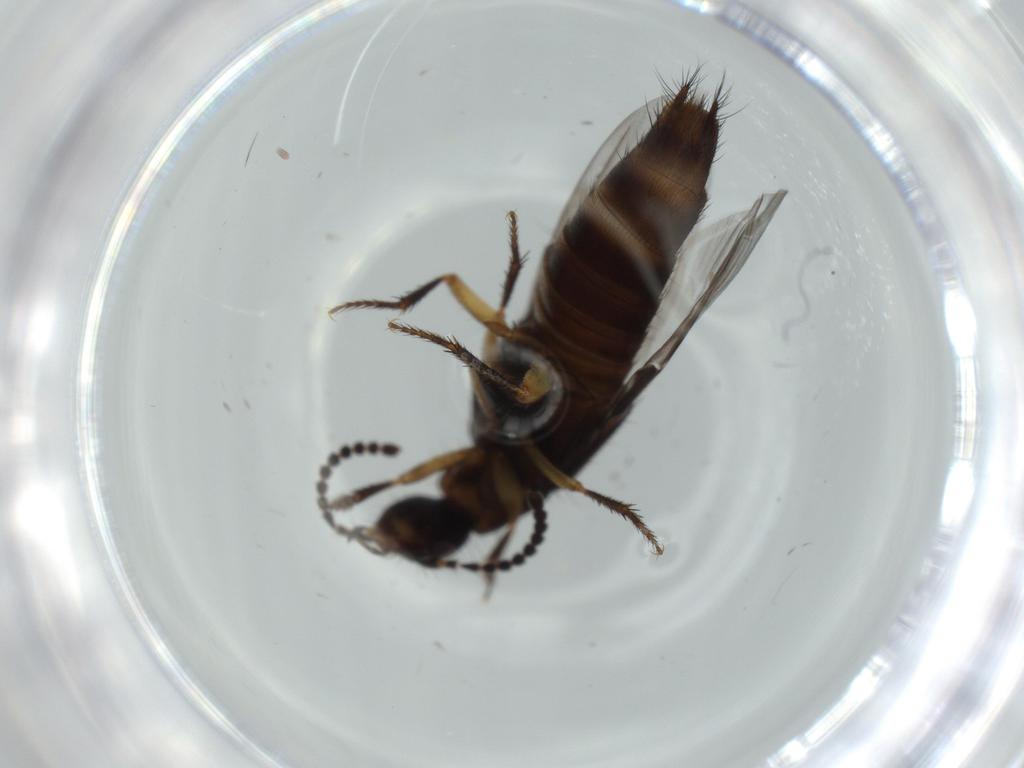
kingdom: Animalia
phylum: Arthropoda
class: Insecta
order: Coleoptera
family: Staphylinidae
